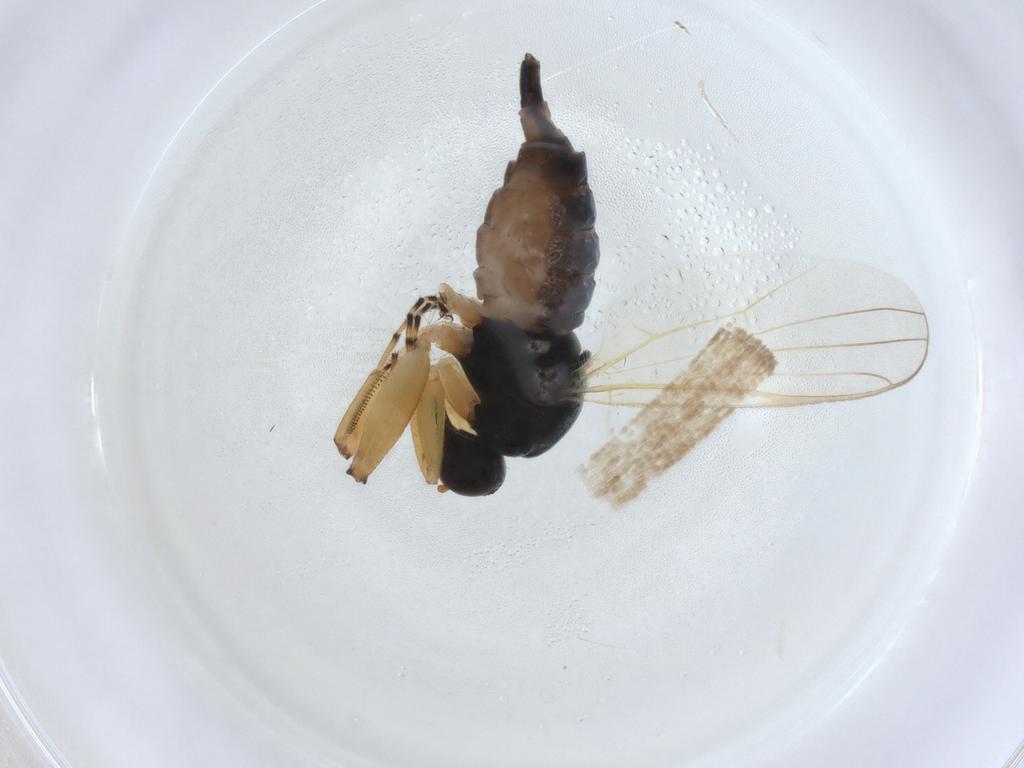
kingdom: Animalia
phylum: Arthropoda
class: Insecta
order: Diptera
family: Hybotidae
